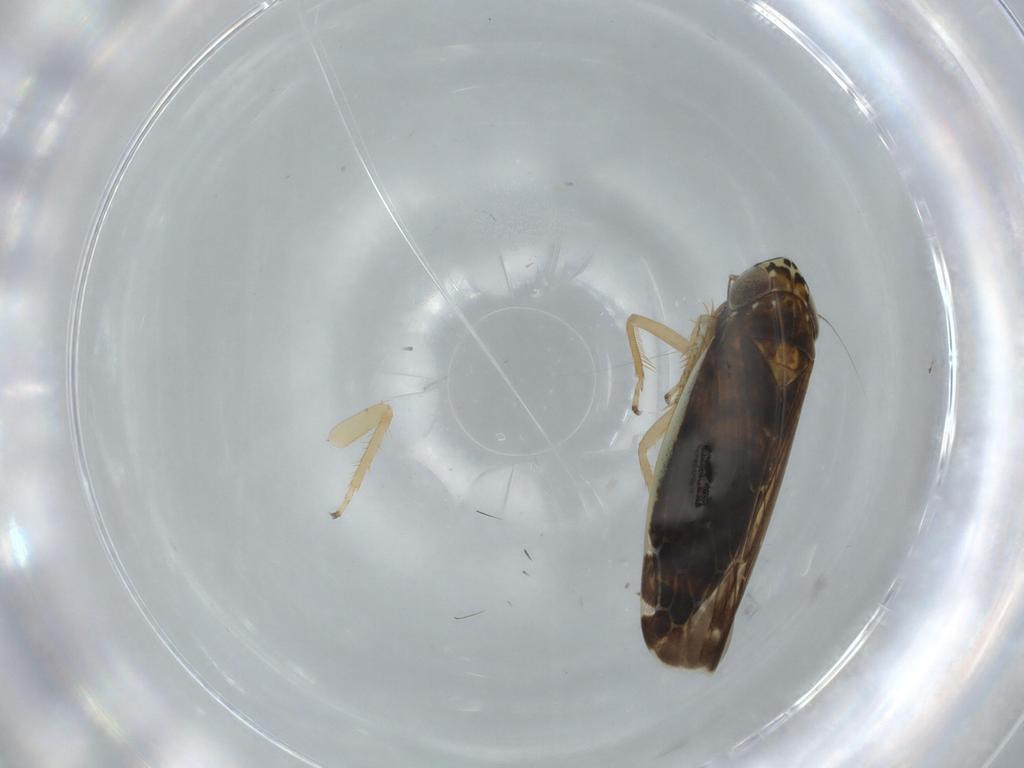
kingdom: Animalia
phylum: Arthropoda
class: Insecta
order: Hemiptera
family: Cicadellidae
